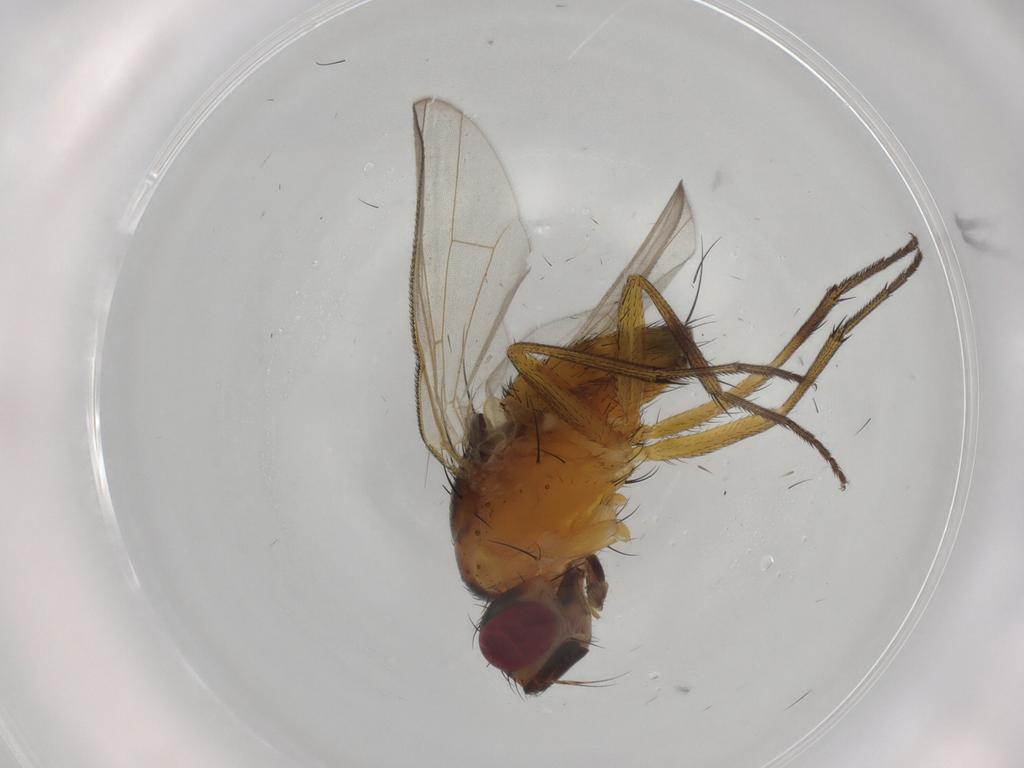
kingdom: Animalia
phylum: Arthropoda
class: Insecta
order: Diptera
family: Muscidae
